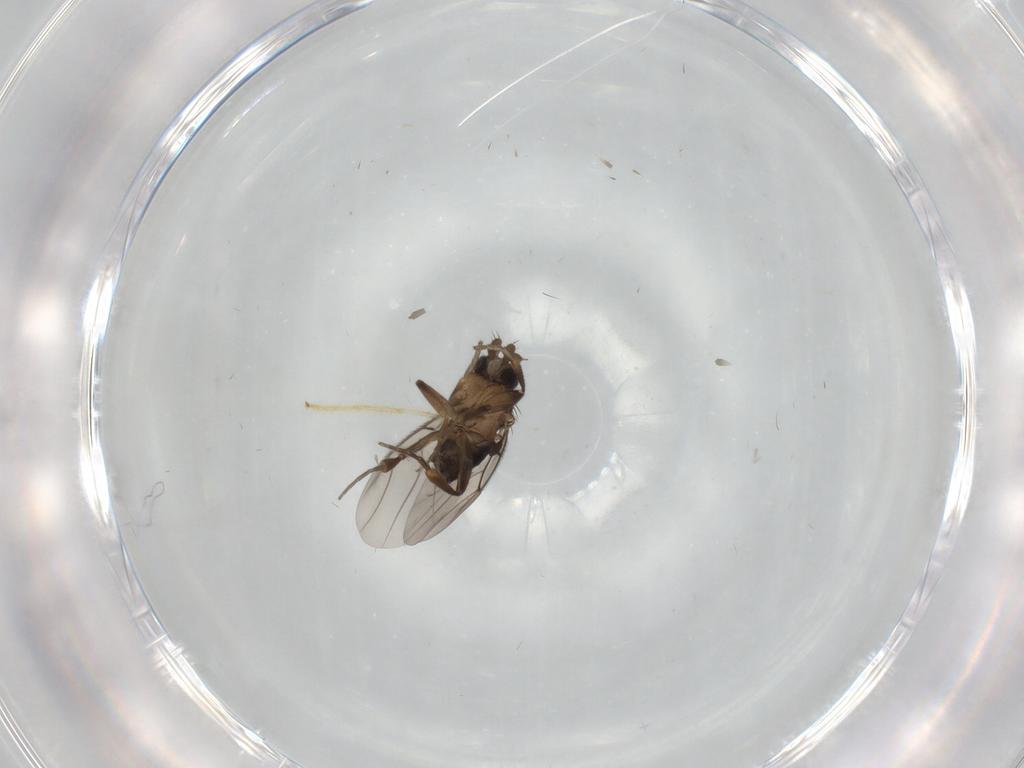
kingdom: Animalia
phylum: Arthropoda
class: Insecta
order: Diptera
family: Phoridae
